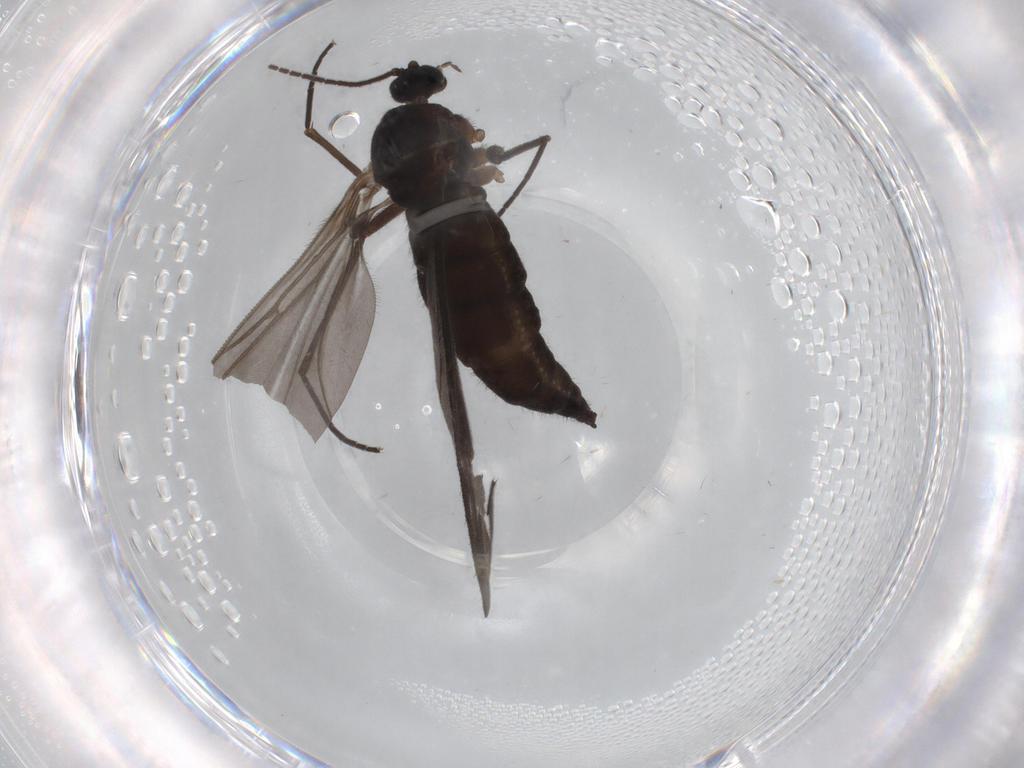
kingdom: Animalia
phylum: Arthropoda
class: Insecta
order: Diptera
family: Sciaridae
